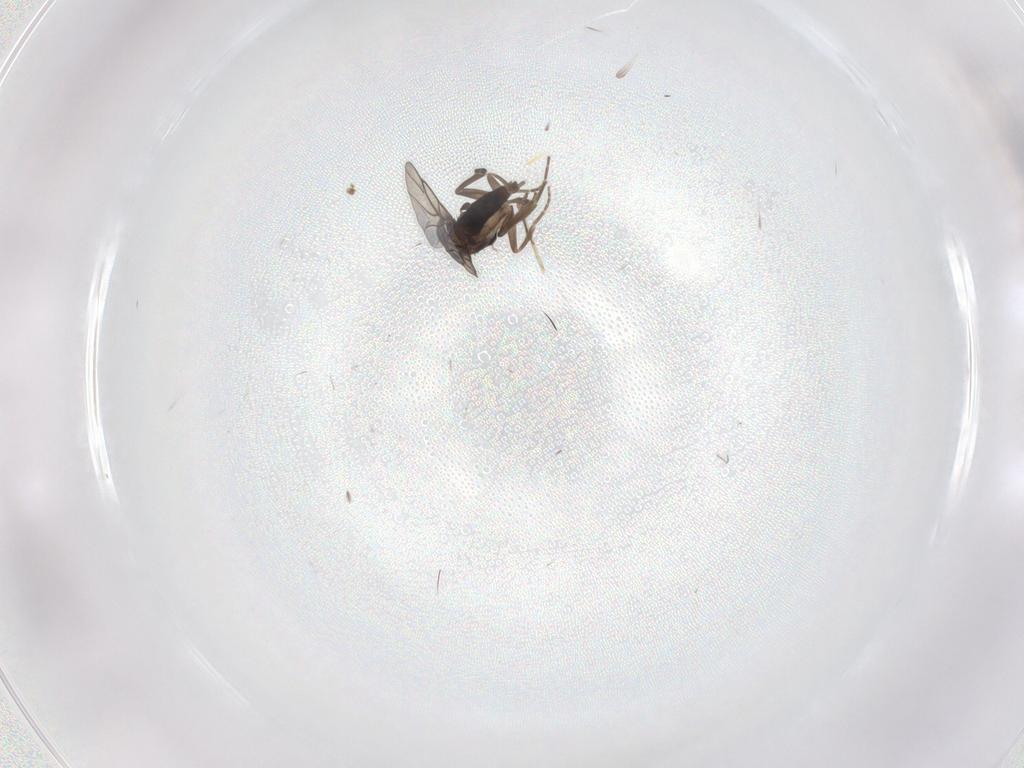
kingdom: Animalia
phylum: Arthropoda
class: Insecta
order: Diptera
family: Phoridae
